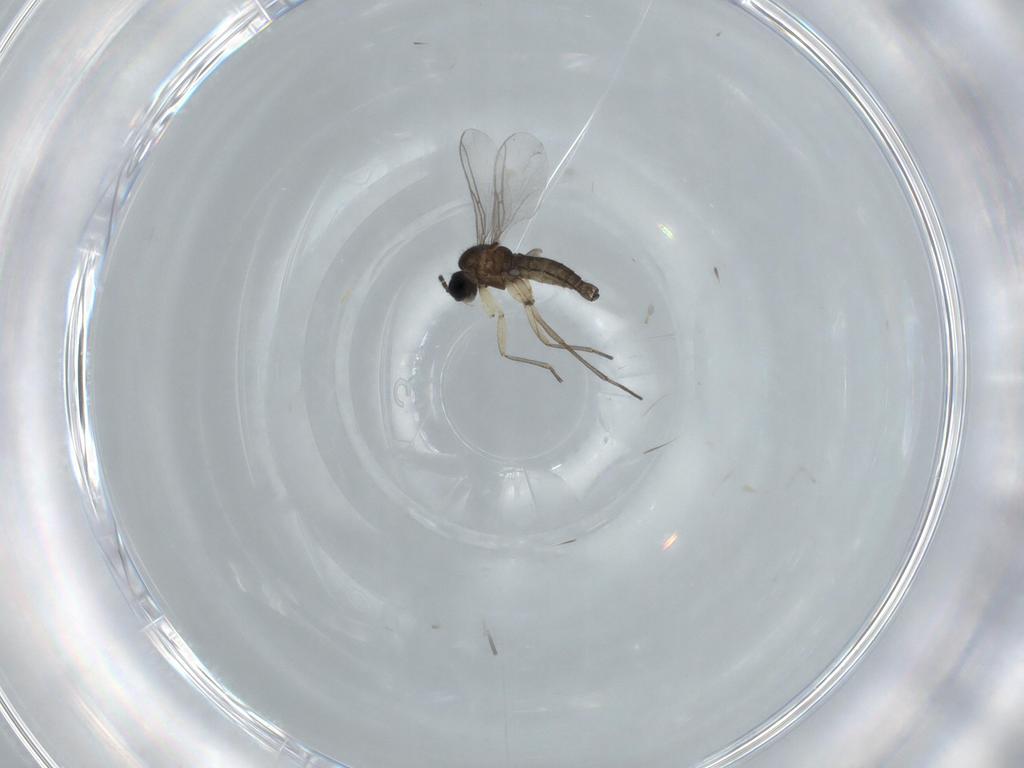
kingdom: Animalia
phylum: Arthropoda
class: Insecta
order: Diptera
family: Sciaridae
